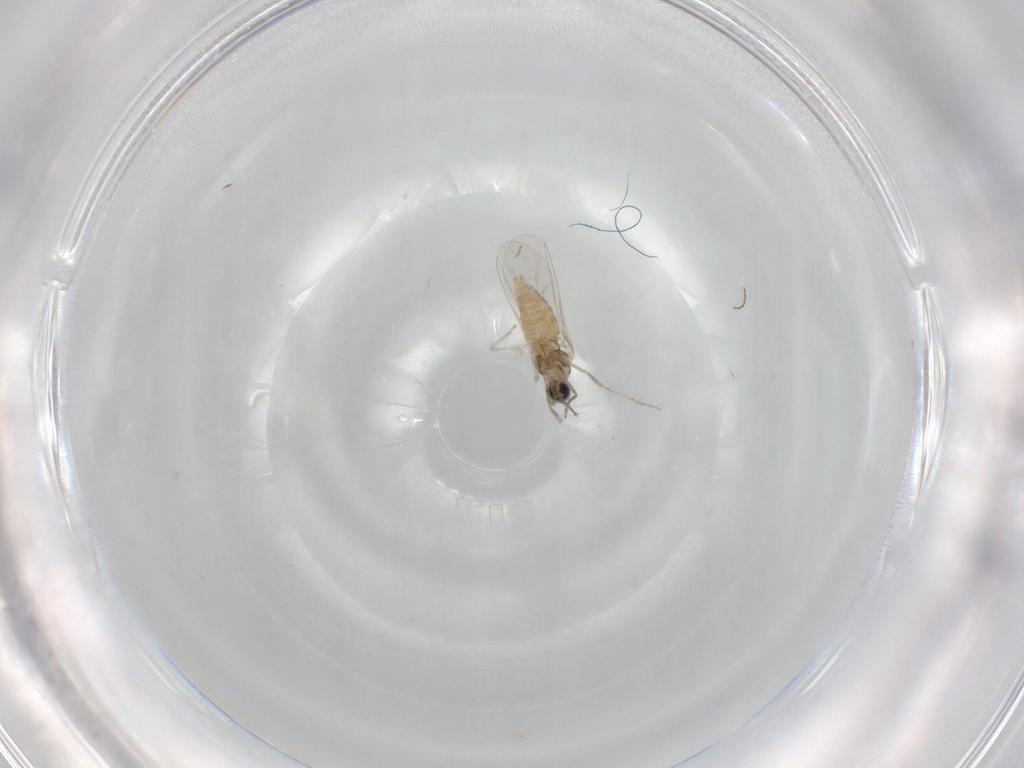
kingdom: Animalia
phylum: Arthropoda
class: Insecta
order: Diptera
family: Cecidomyiidae
